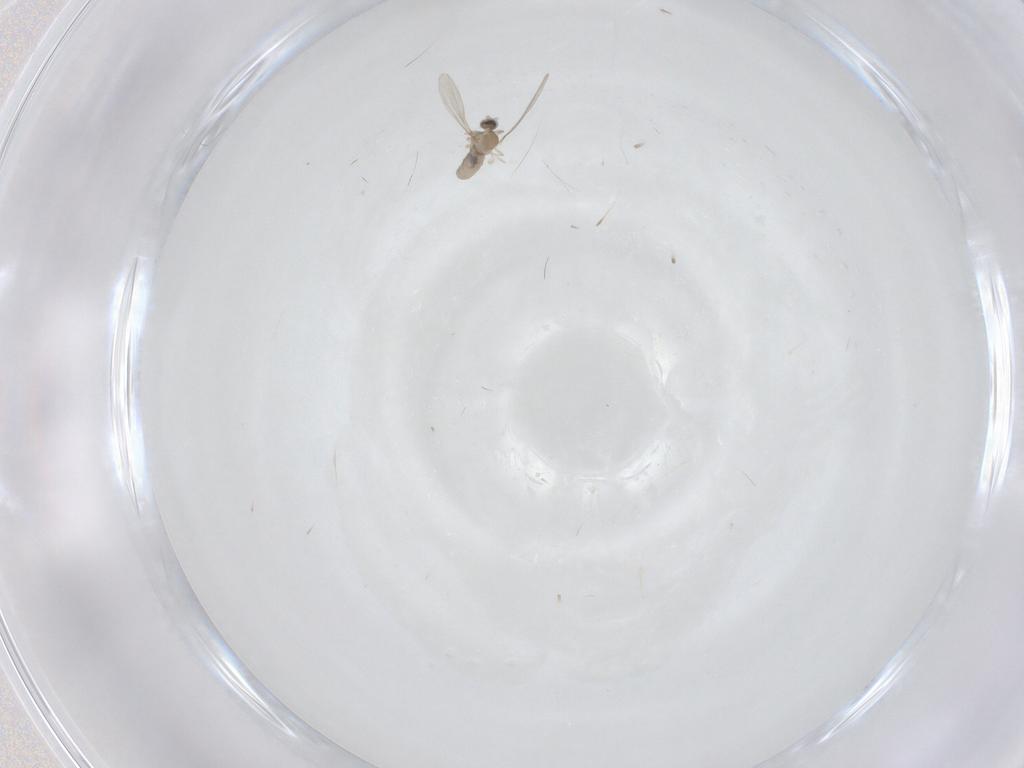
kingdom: Animalia
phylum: Arthropoda
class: Insecta
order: Diptera
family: Cecidomyiidae
